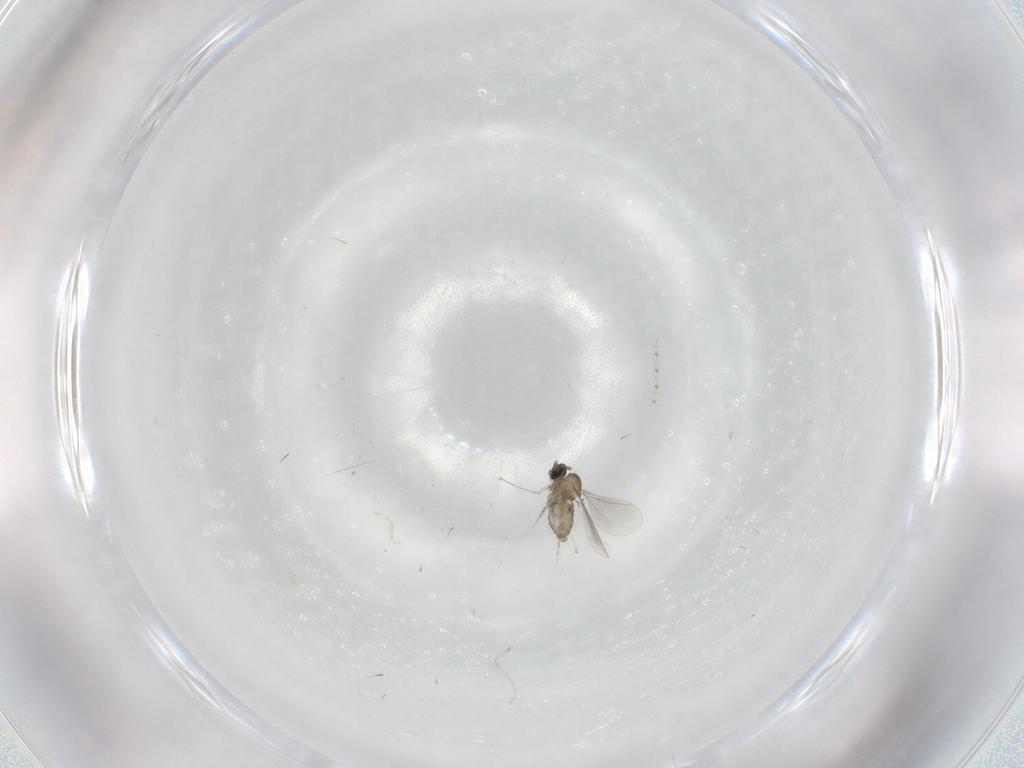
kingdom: Animalia
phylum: Arthropoda
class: Insecta
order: Diptera
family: Cecidomyiidae
